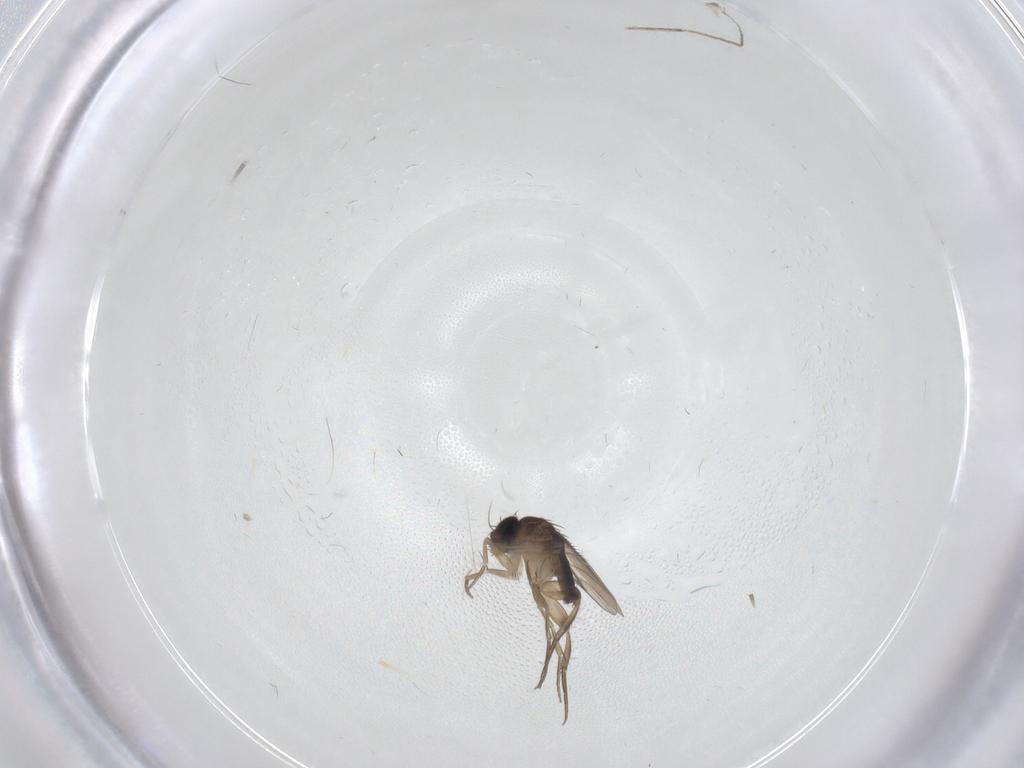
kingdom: Animalia
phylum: Arthropoda
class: Insecta
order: Diptera
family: Phoridae
